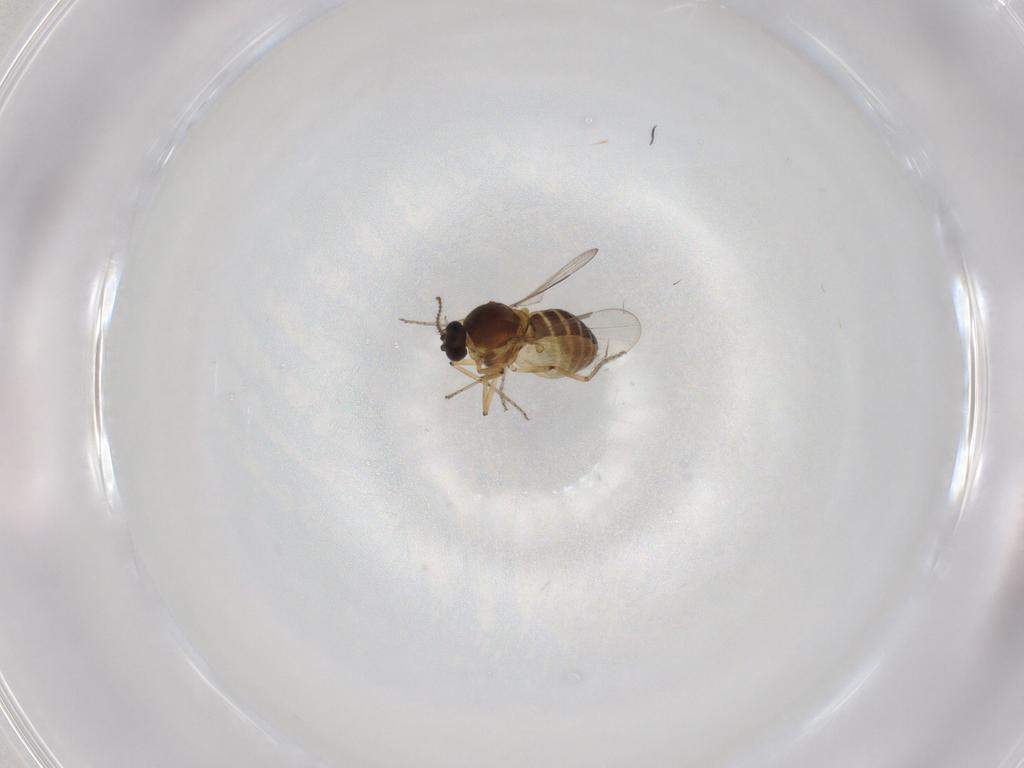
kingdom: Animalia
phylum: Arthropoda
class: Insecta
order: Diptera
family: Ceratopogonidae
